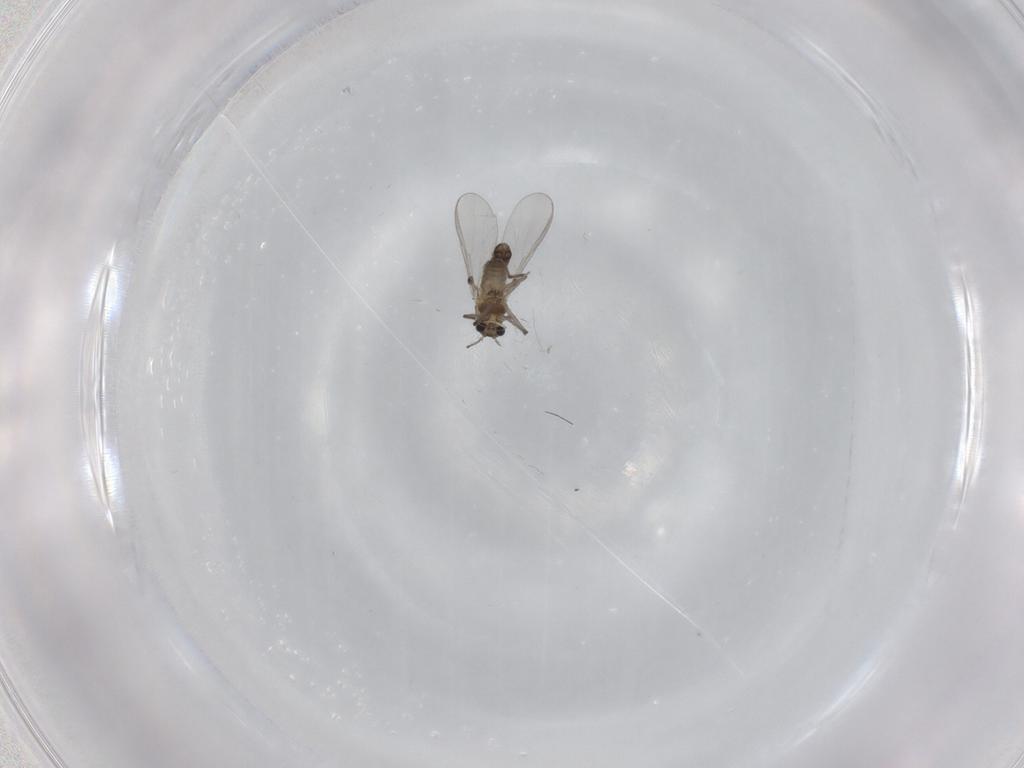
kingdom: Animalia
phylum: Arthropoda
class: Insecta
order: Diptera
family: Chironomidae
